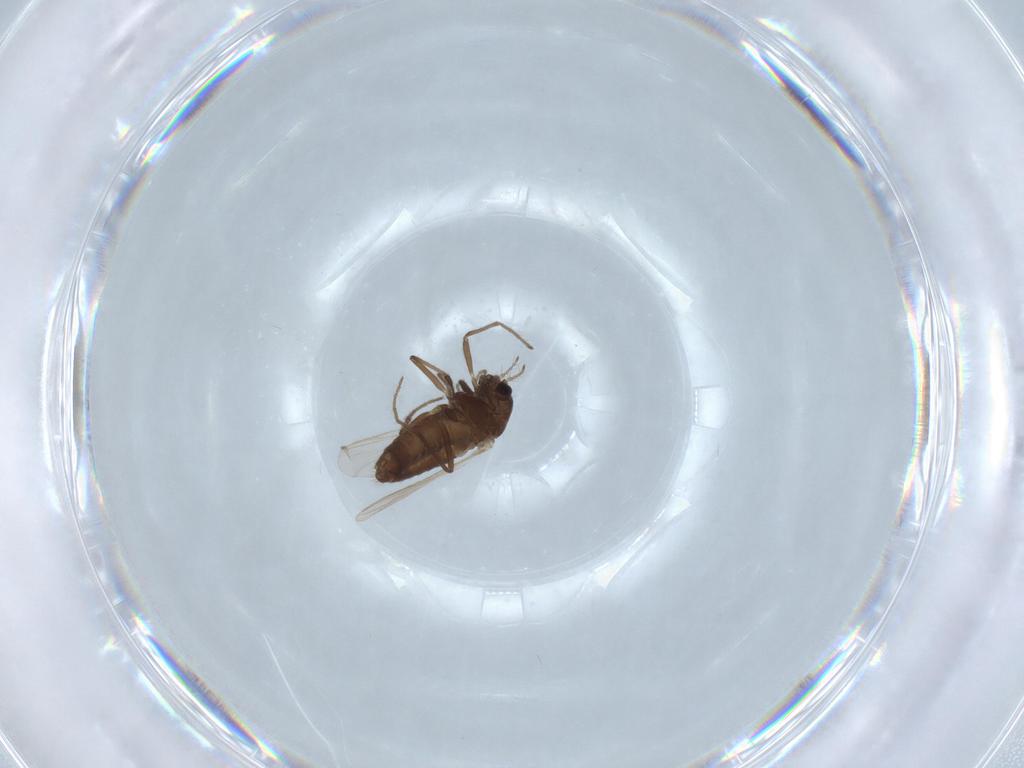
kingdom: Animalia
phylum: Arthropoda
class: Insecta
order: Diptera
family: Chironomidae
